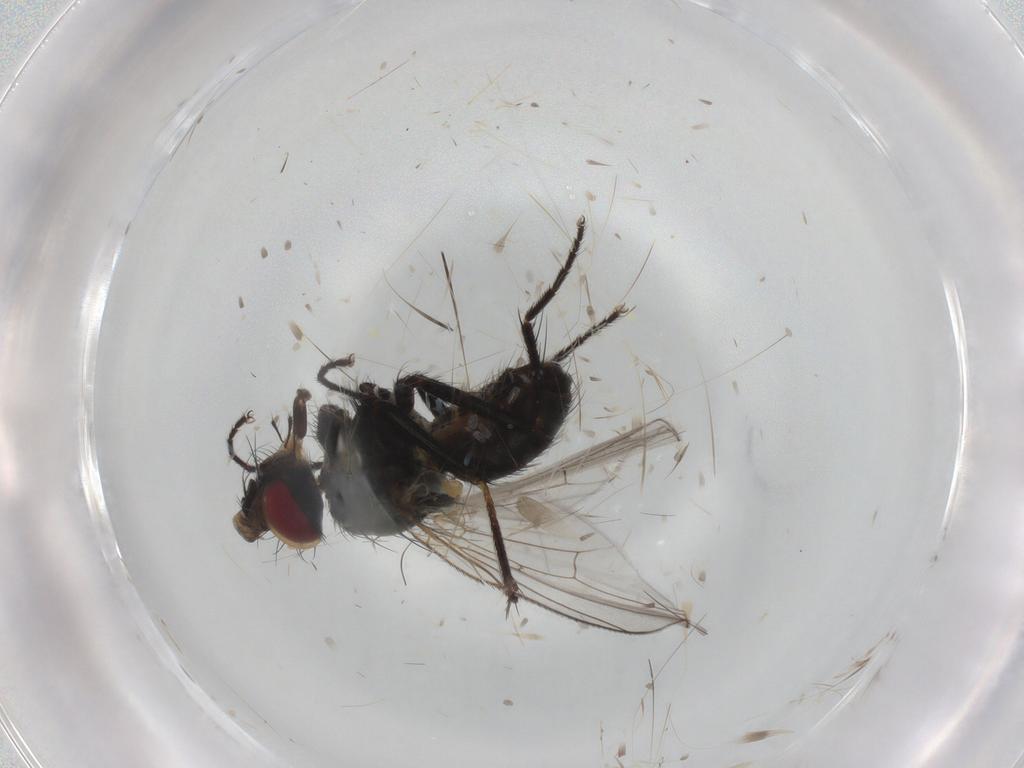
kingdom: Animalia
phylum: Arthropoda
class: Insecta
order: Diptera
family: Muscidae
